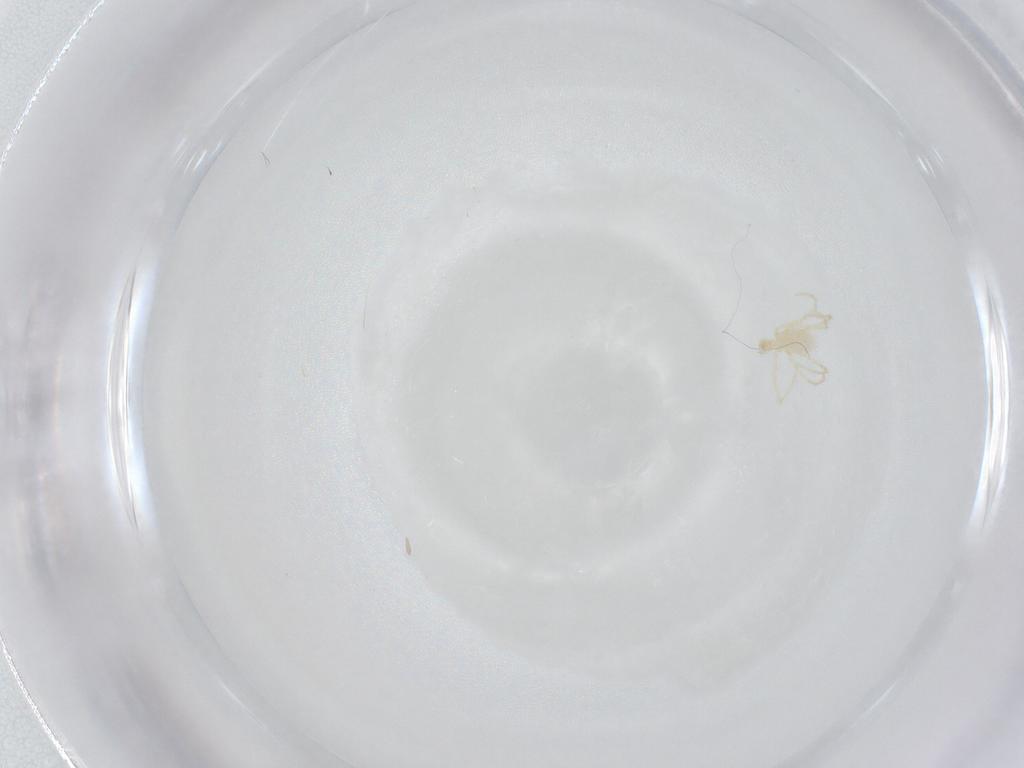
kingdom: Animalia
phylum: Arthropoda
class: Arachnida
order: Trombidiformes
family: Erythraeidae
